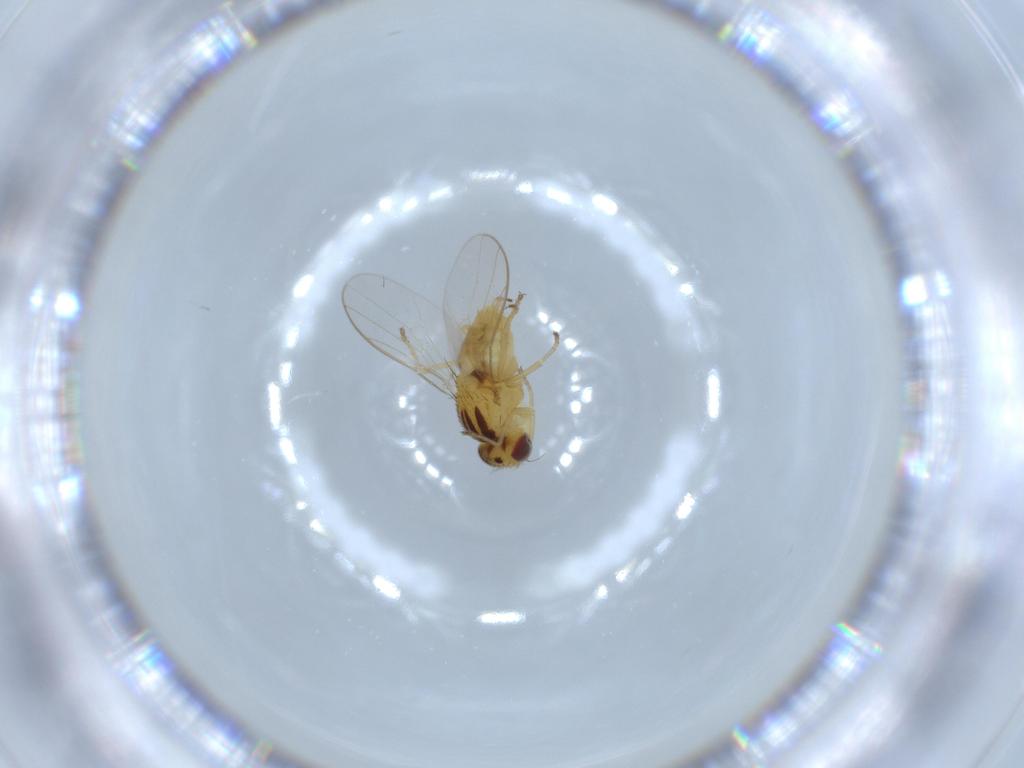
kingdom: Animalia
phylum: Arthropoda
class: Insecta
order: Diptera
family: Chloropidae
